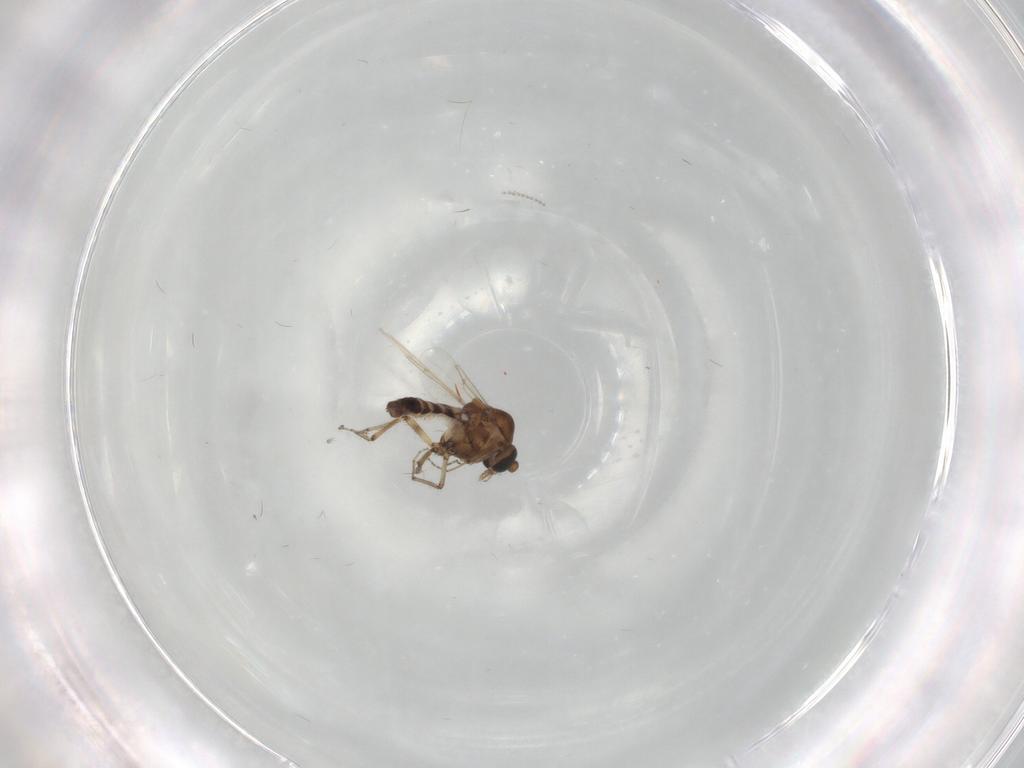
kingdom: Animalia
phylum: Arthropoda
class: Insecta
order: Diptera
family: Ceratopogonidae
